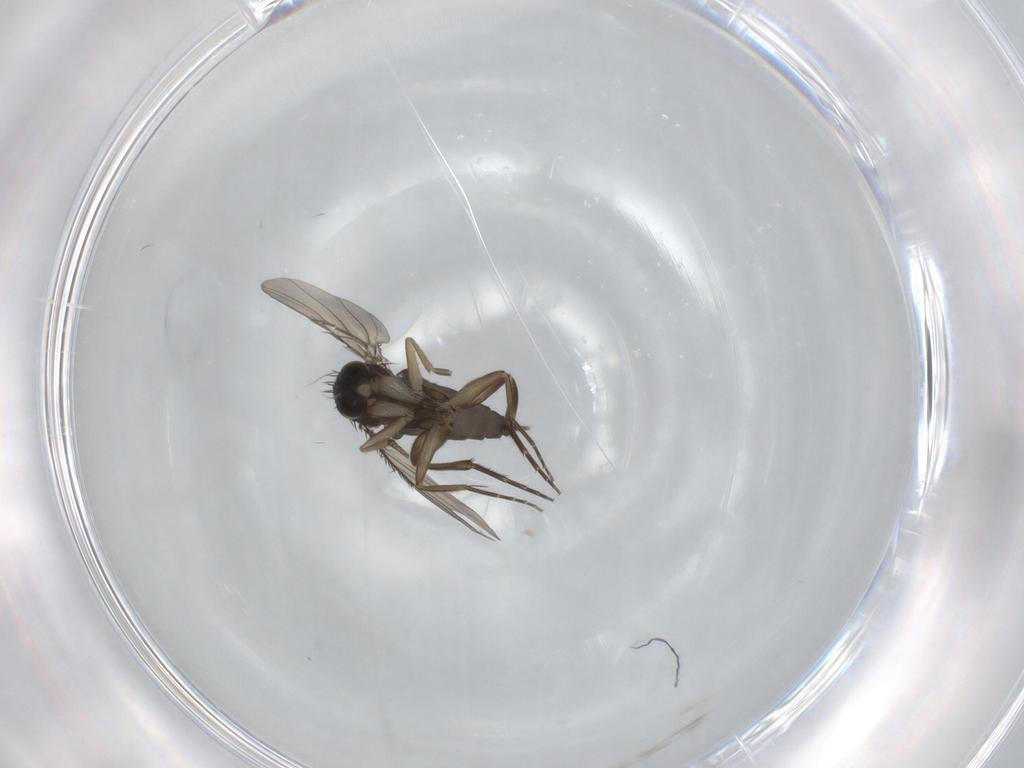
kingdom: Animalia
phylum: Arthropoda
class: Insecta
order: Diptera
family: Phoridae
